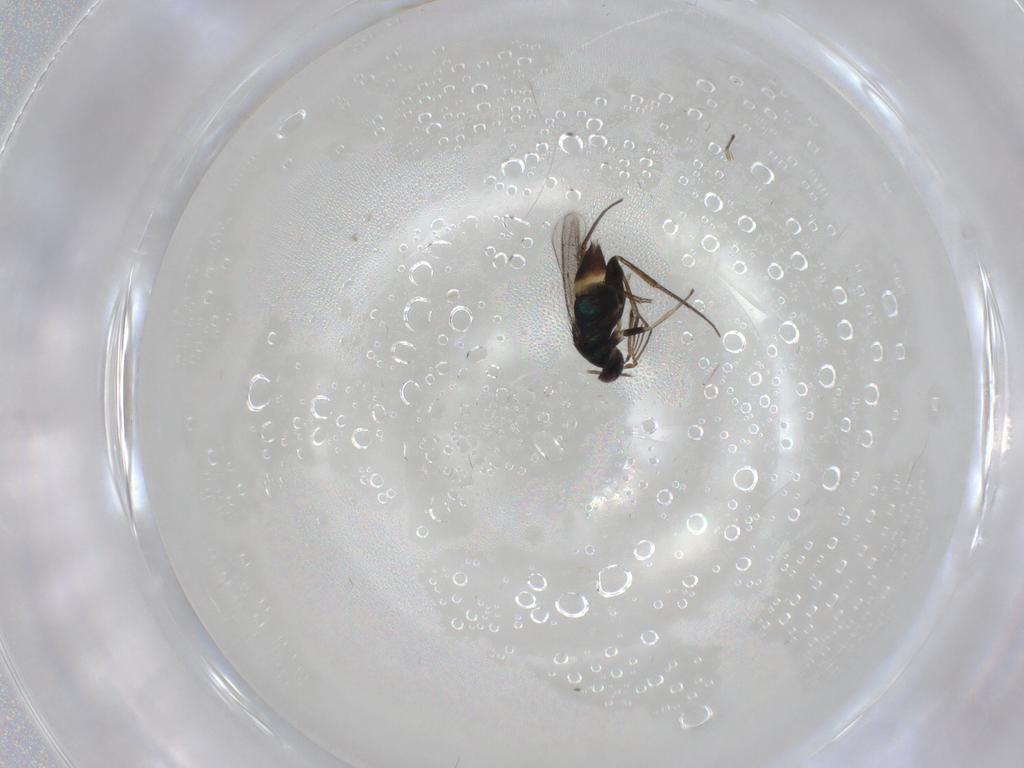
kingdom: Animalia
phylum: Arthropoda
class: Insecta
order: Hymenoptera
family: Eulophidae
